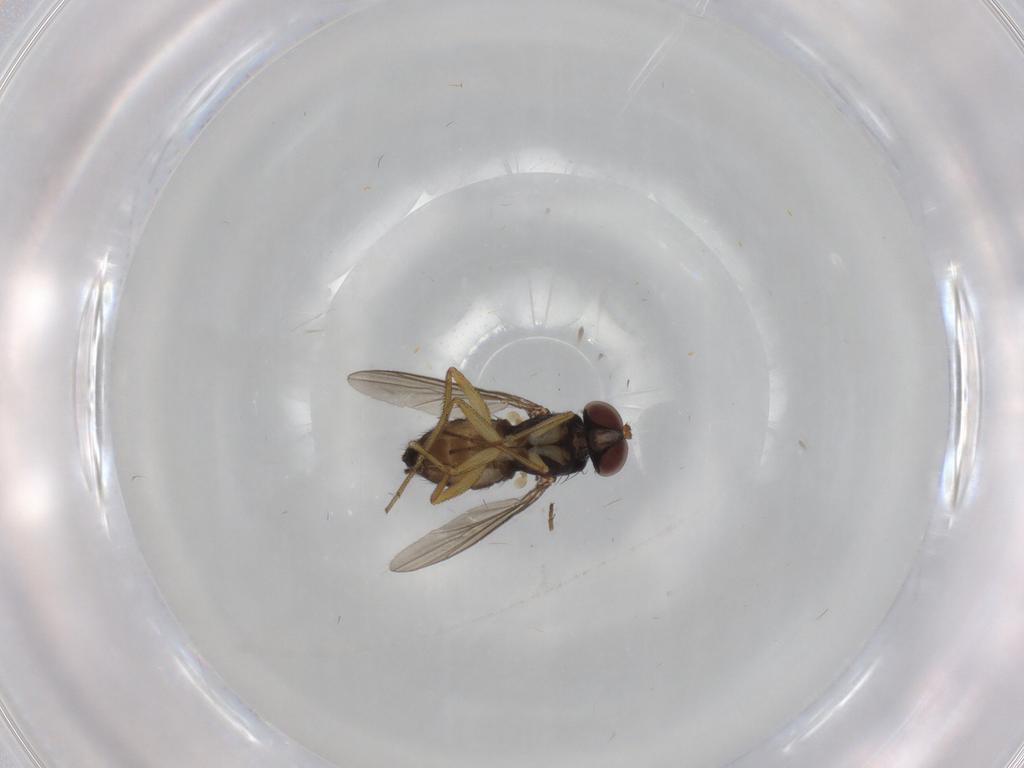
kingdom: Animalia
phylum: Arthropoda
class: Insecta
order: Diptera
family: Dolichopodidae
